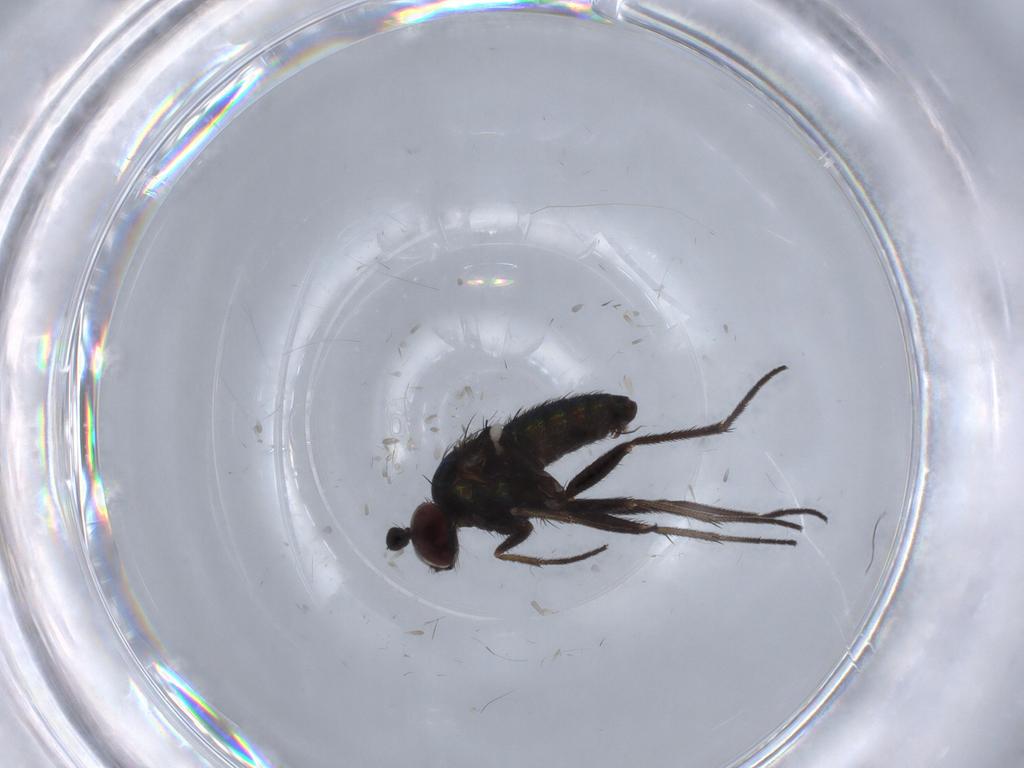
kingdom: Animalia
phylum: Arthropoda
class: Insecta
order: Diptera
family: Dolichopodidae
